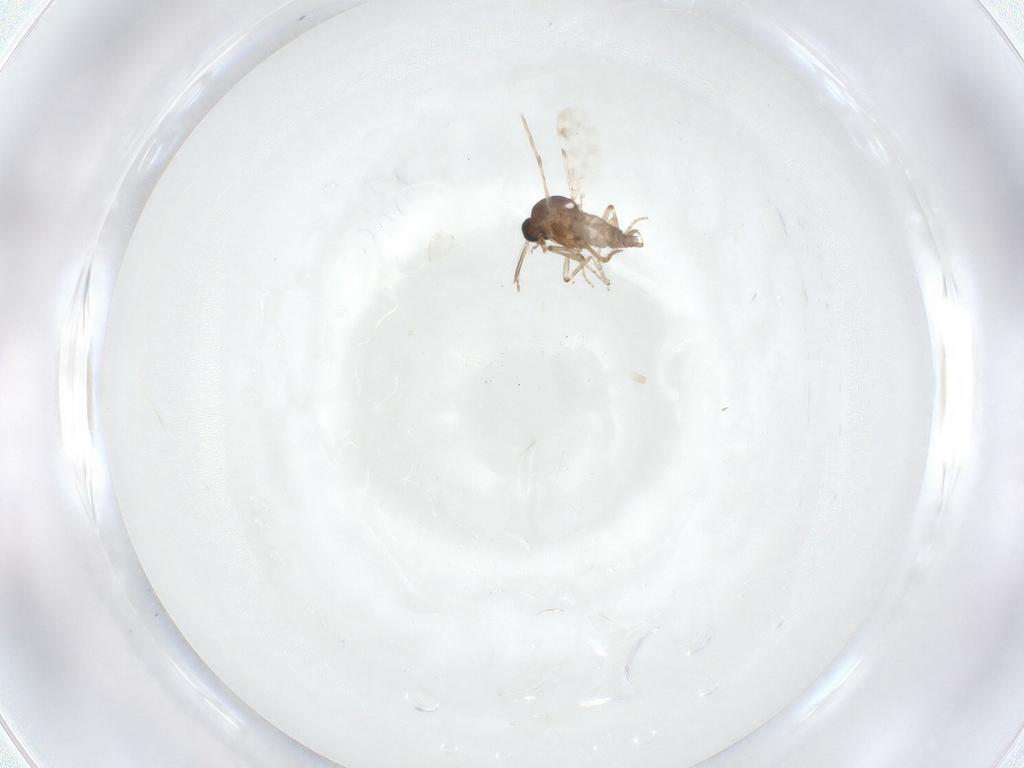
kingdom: Animalia
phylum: Arthropoda
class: Insecta
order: Diptera
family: Ceratopogonidae
